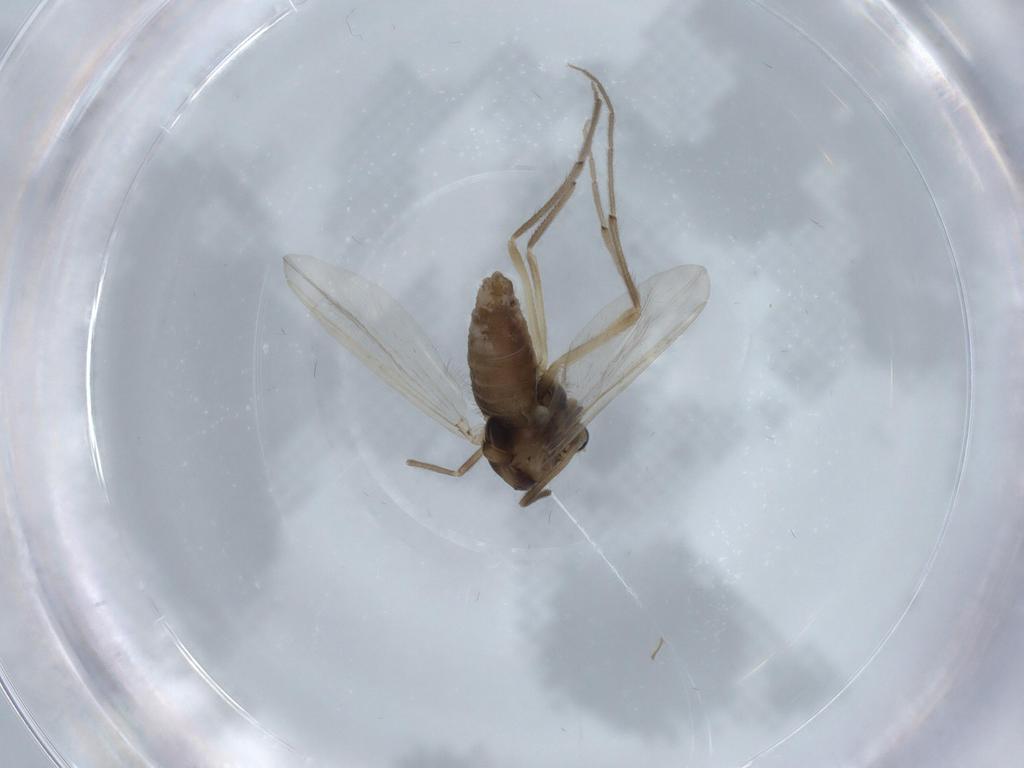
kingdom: Animalia
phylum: Arthropoda
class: Insecta
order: Diptera
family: Chironomidae
